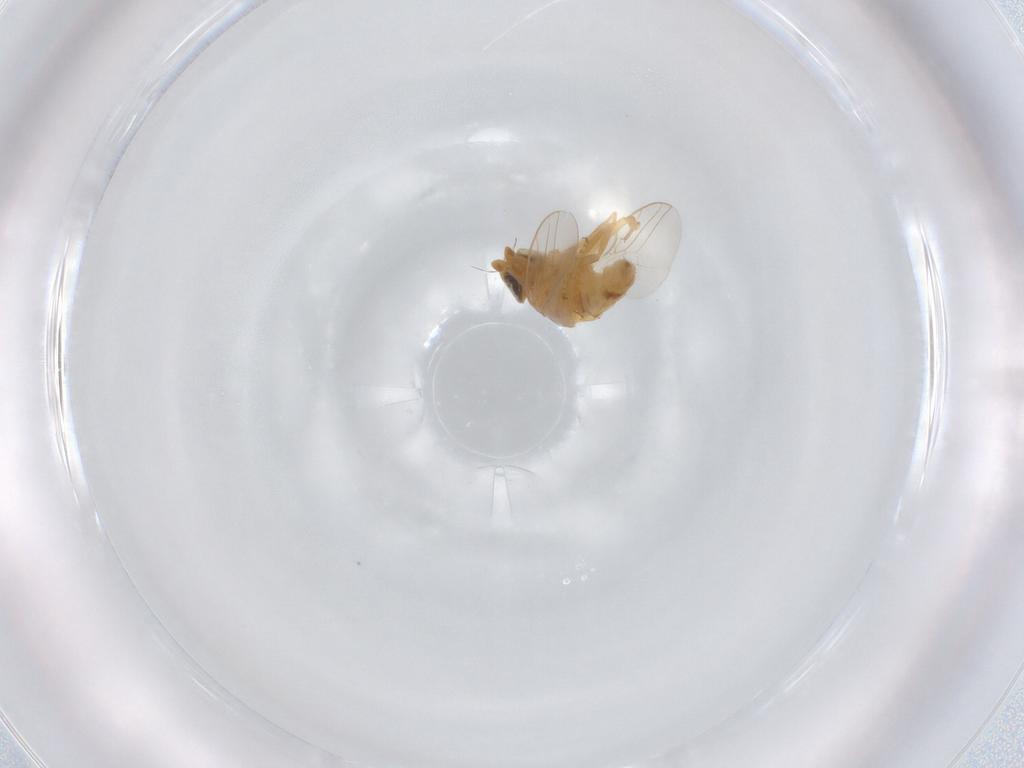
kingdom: Animalia
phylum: Arthropoda
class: Insecta
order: Diptera
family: Chloropidae
